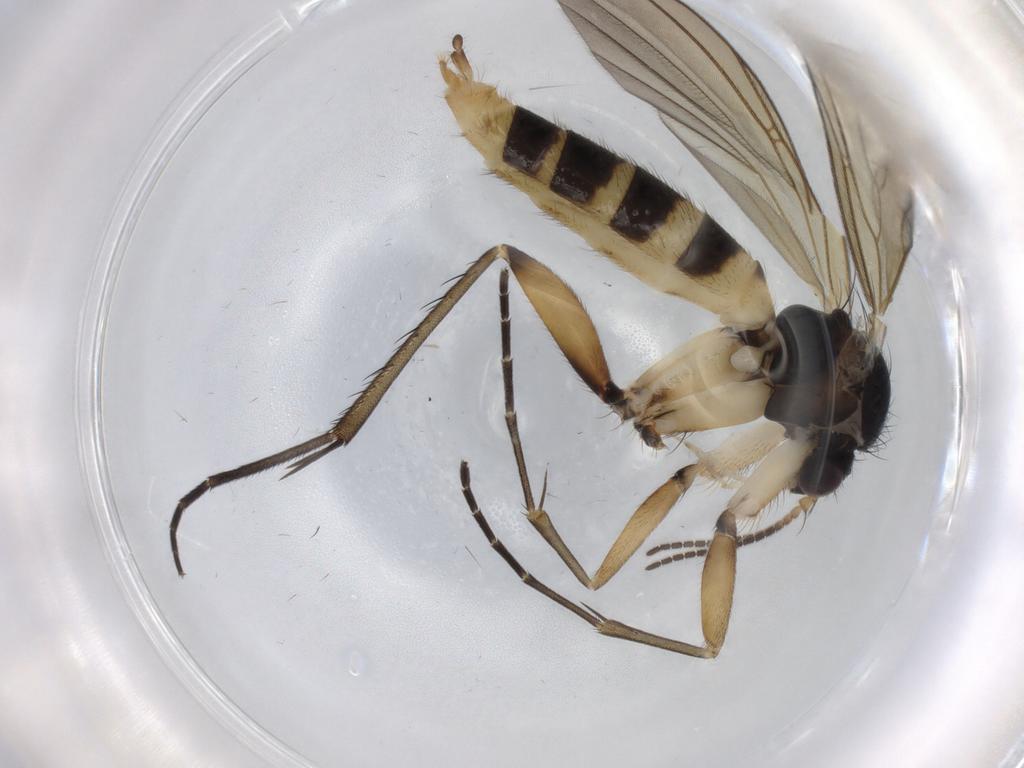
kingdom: Animalia
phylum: Arthropoda
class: Insecta
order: Diptera
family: Mycetophilidae
